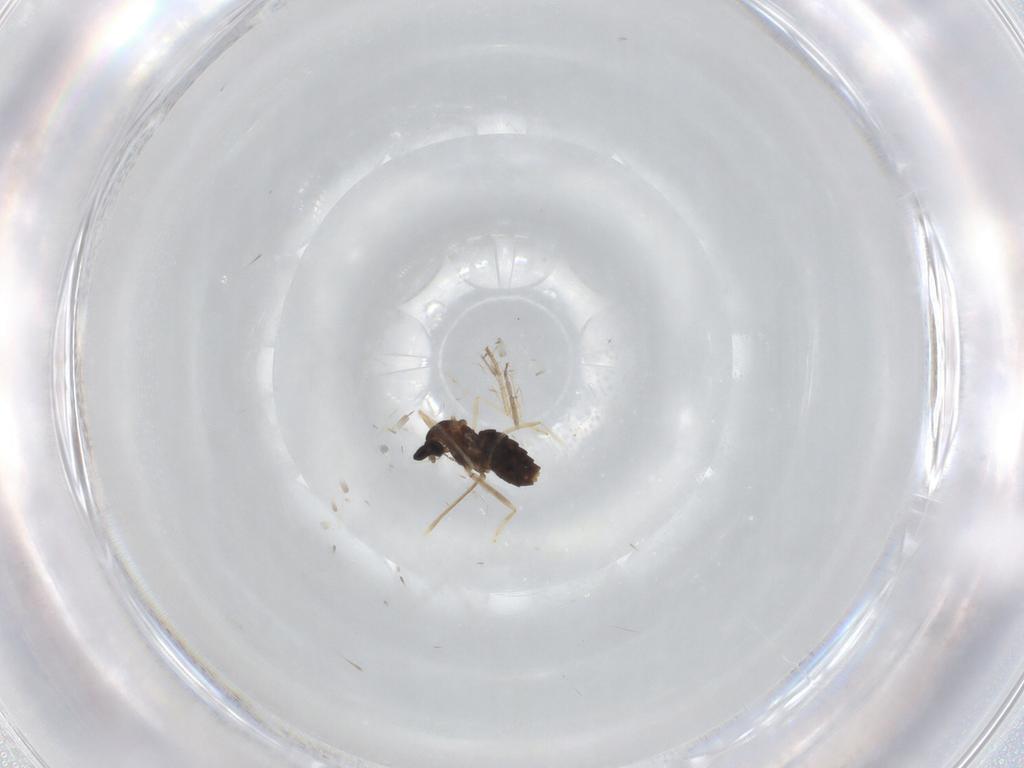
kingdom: Animalia
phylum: Arthropoda
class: Insecta
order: Diptera
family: Cecidomyiidae
